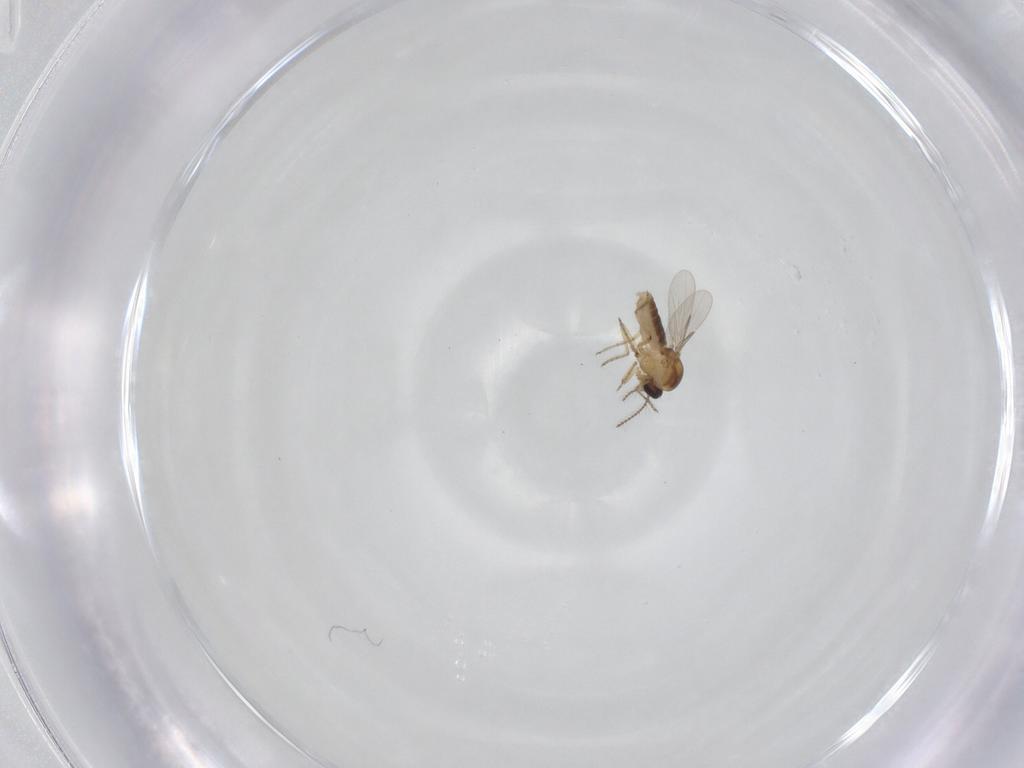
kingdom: Animalia
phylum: Arthropoda
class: Insecta
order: Diptera
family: Ceratopogonidae
